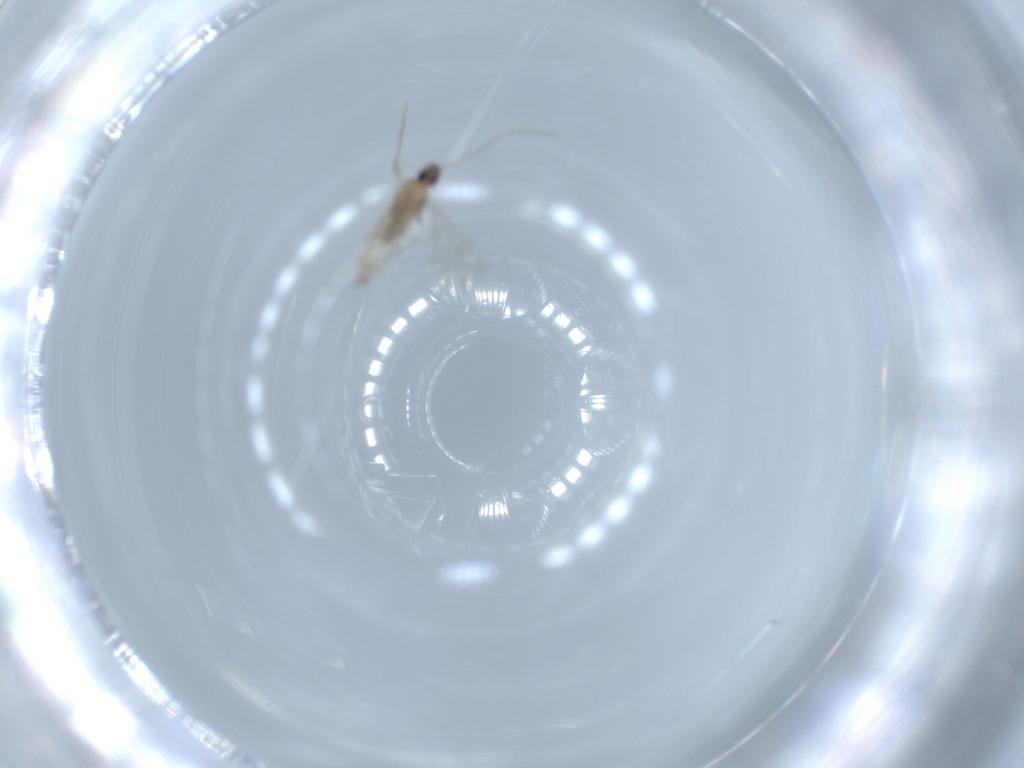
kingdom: Animalia
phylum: Arthropoda
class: Insecta
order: Diptera
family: Cecidomyiidae
